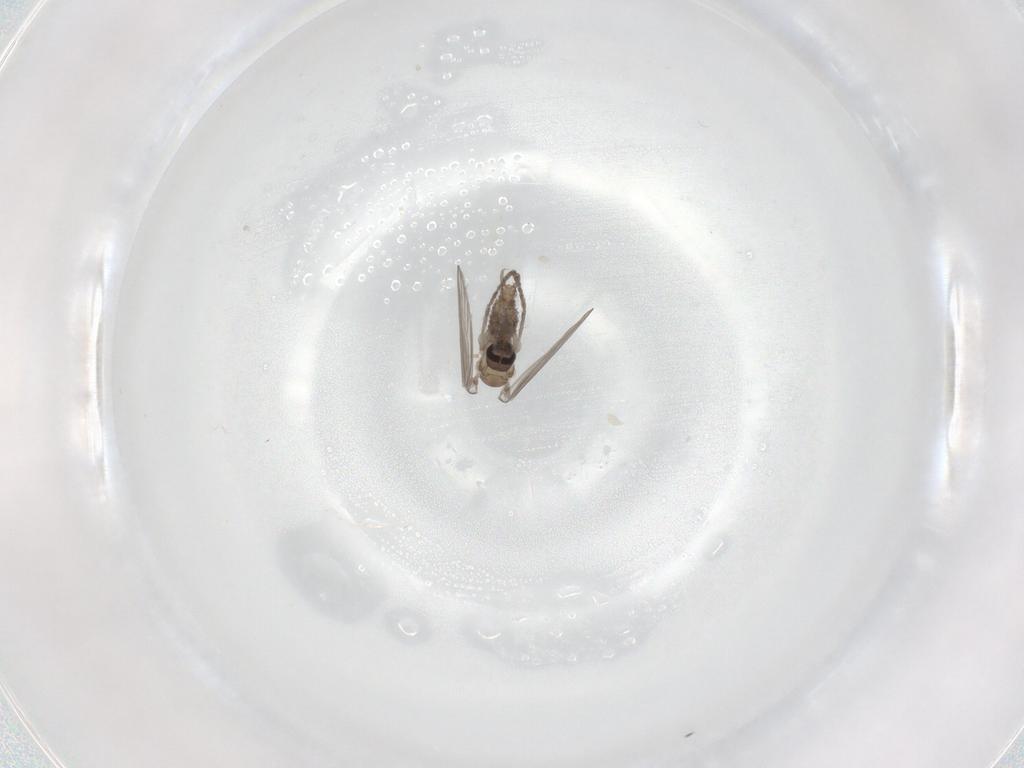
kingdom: Animalia
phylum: Arthropoda
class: Insecta
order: Diptera
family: Psychodidae
